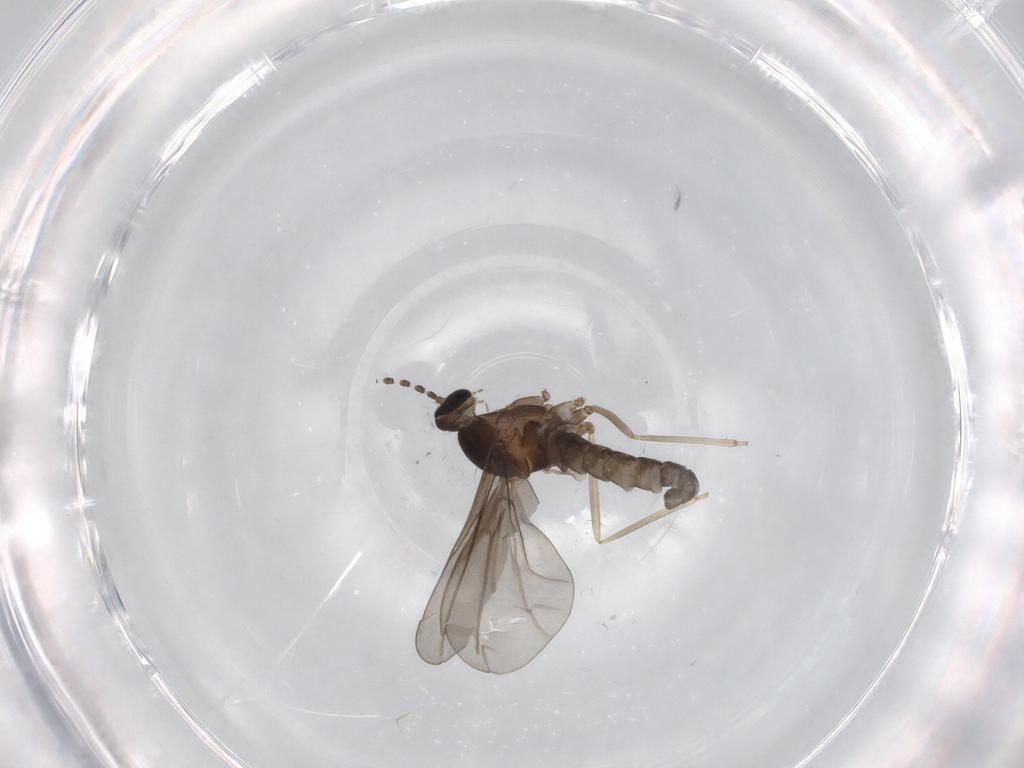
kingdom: Animalia
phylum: Arthropoda
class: Insecta
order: Diptera
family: Cecidomyiidae
